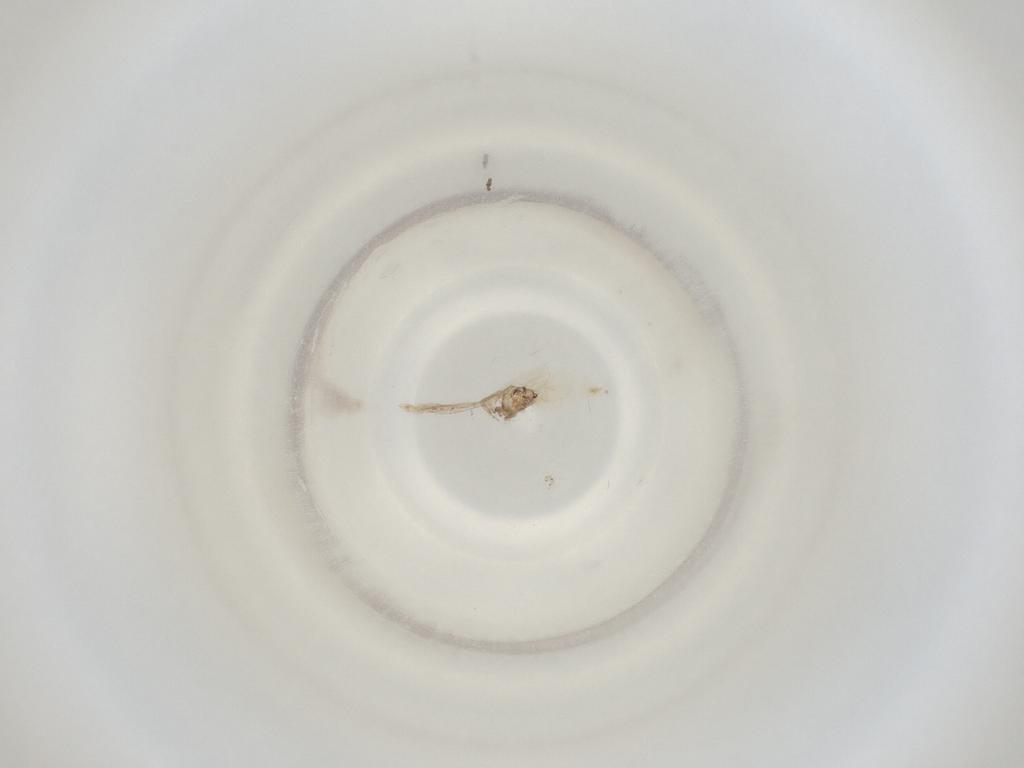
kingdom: Animalia
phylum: Arthropoda
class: Insecta
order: Diptera
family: Cecidomyiidae
